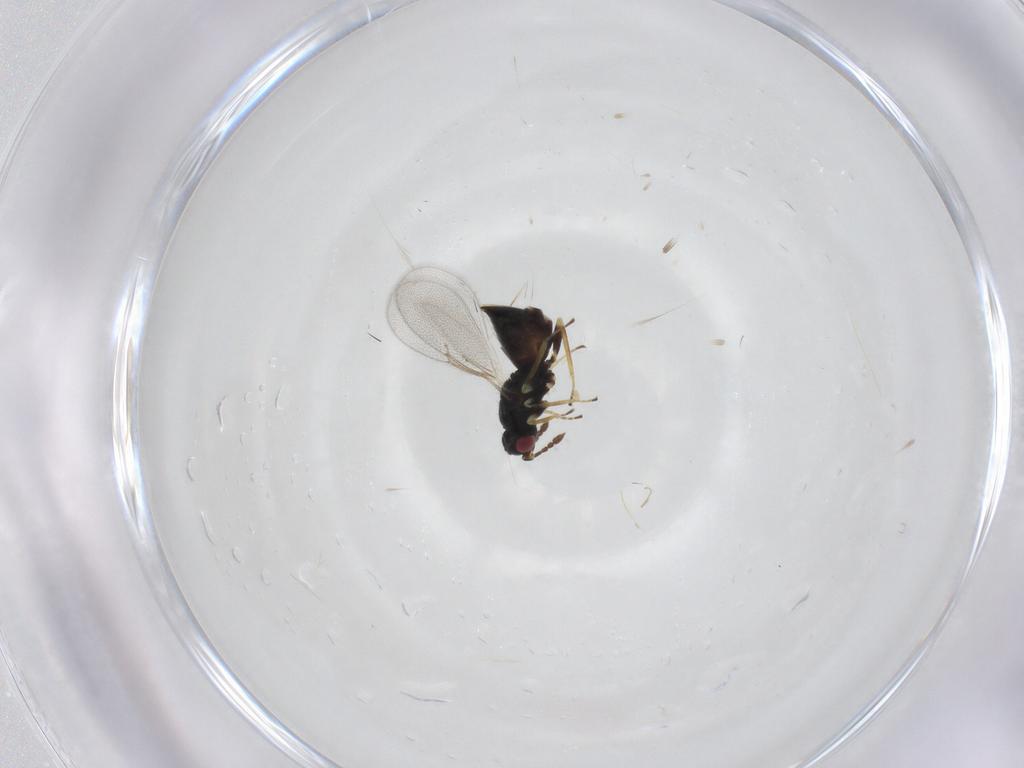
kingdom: Animalia
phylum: Arthropoda
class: Insecta
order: Hymenoptera
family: Eulophidae
